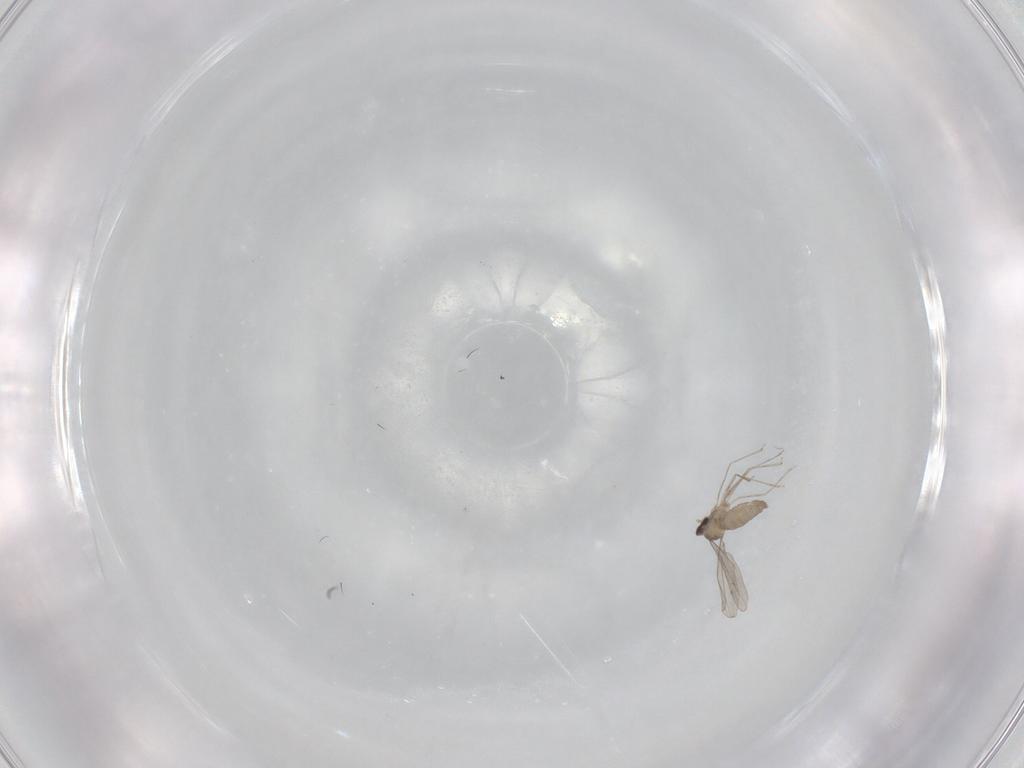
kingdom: Animalia
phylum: Arthropoda
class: Insecta
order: Diptera
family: Cecidomyiidae
